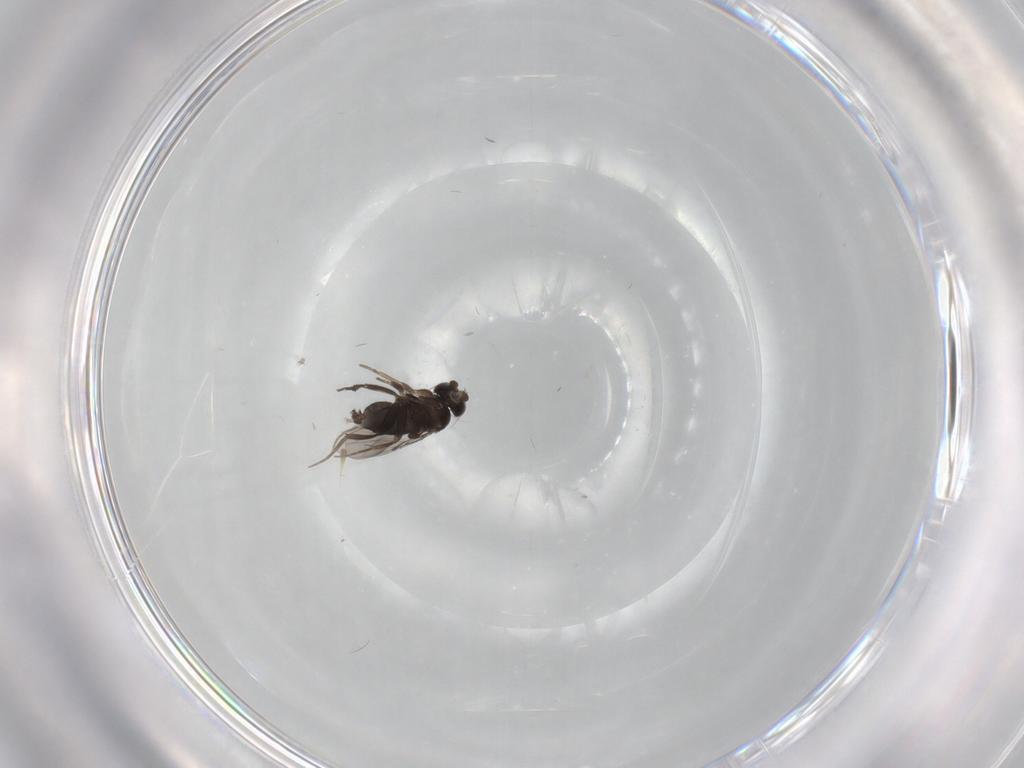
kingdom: Animalia
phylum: Arthropoda
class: Insecta
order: Diptera
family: Phoridae
